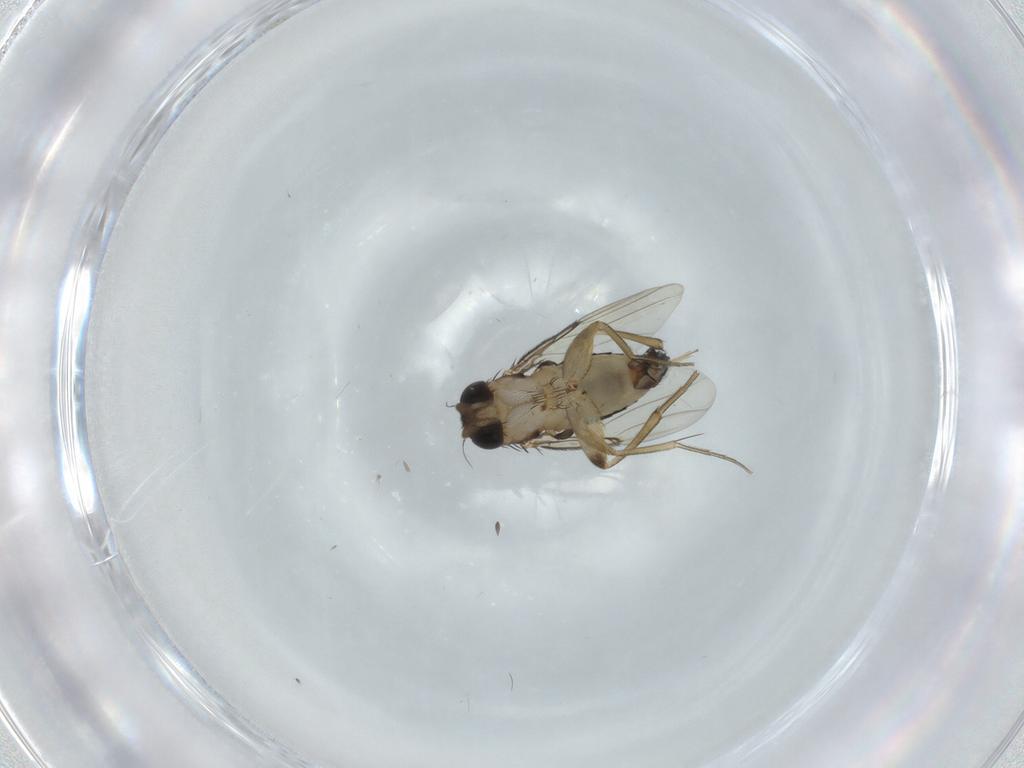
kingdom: Animalia
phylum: Arthropoda
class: Insecta
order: Diptera
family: Phoridae
